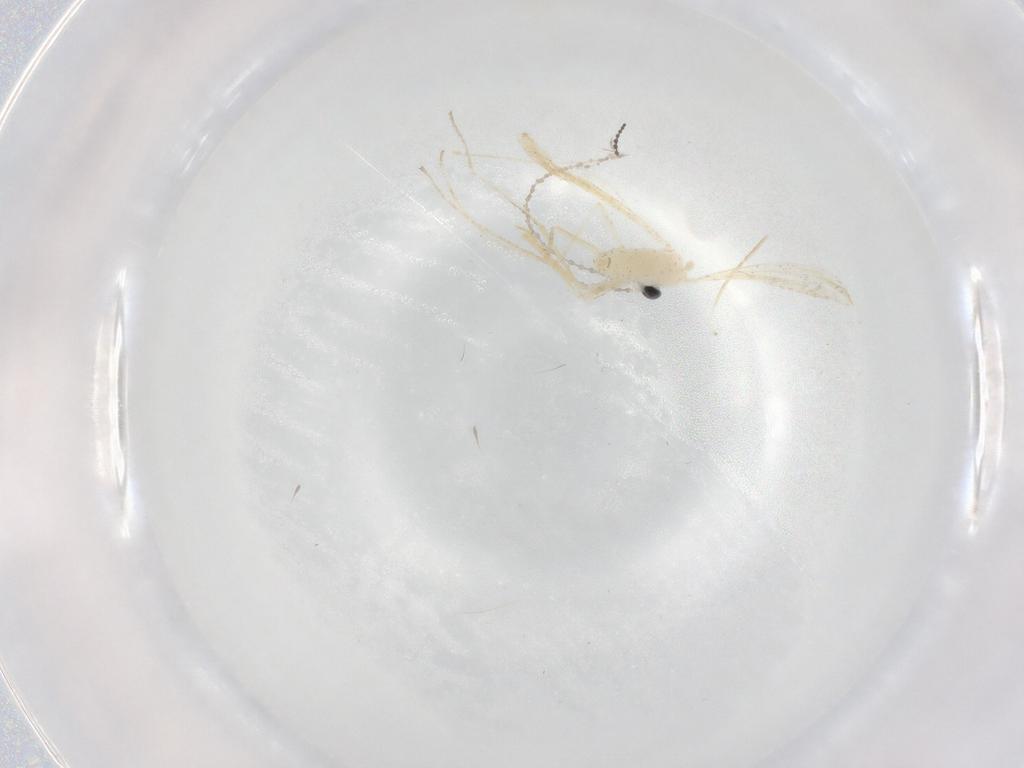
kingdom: Animalia
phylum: Arthropoda
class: Insecta
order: Diptera
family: Cecidomyiidae
